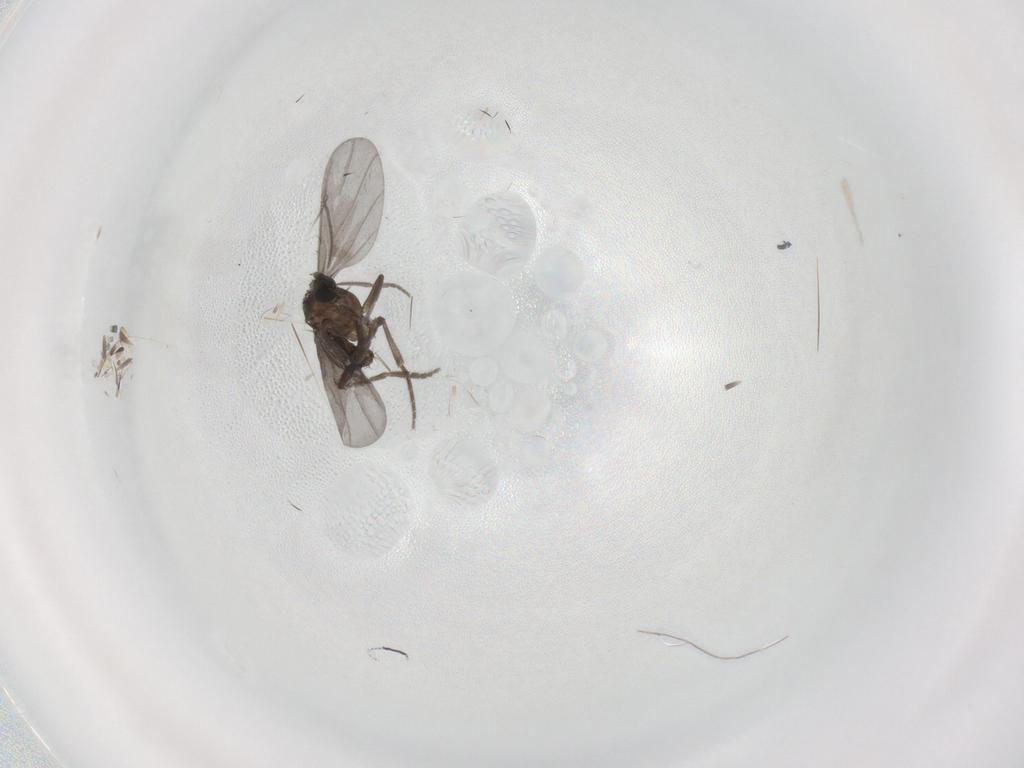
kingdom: Animalia
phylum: Arthropoda
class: Insecta
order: Diptera
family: Phoridae
